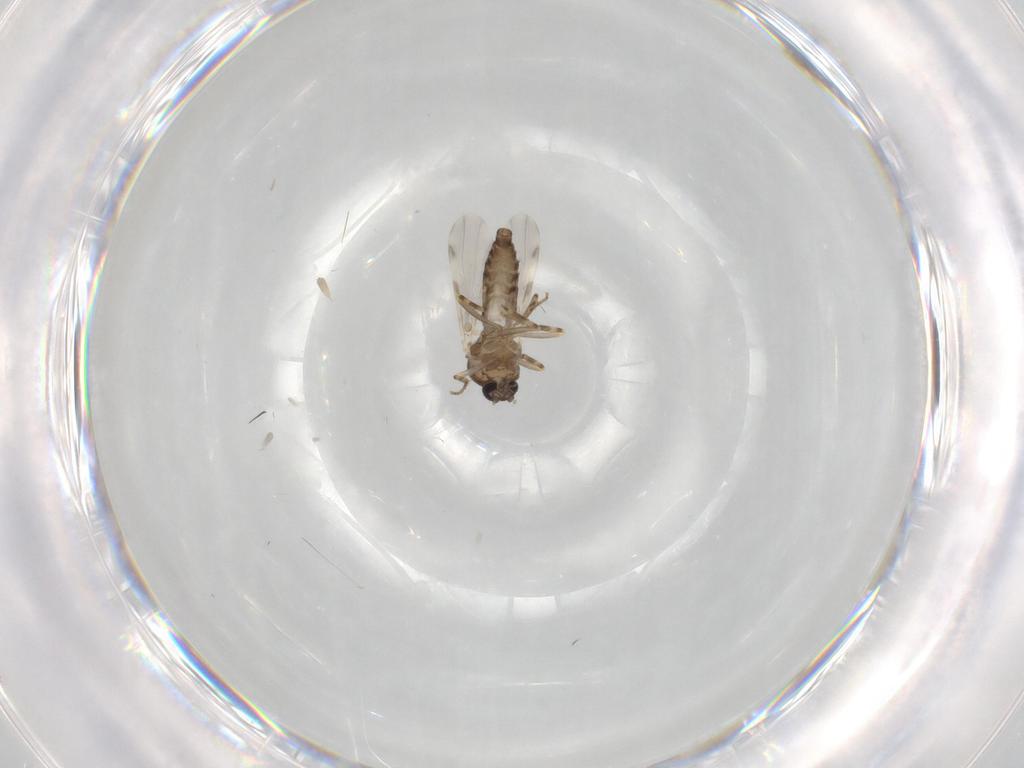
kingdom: Animalia
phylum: Arthropoda
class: Insecta
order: Diptera
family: Ceratopogonidae
